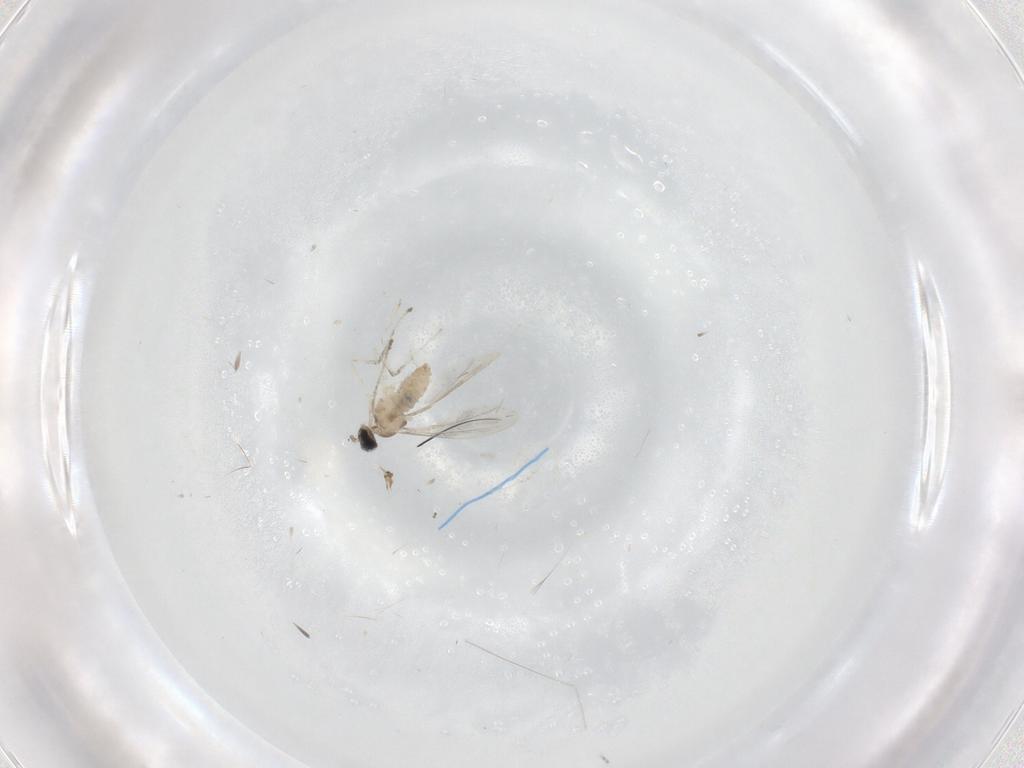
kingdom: Animalia
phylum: Arthropoda
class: Insecta
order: Diptera
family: Cecidomyiidae
